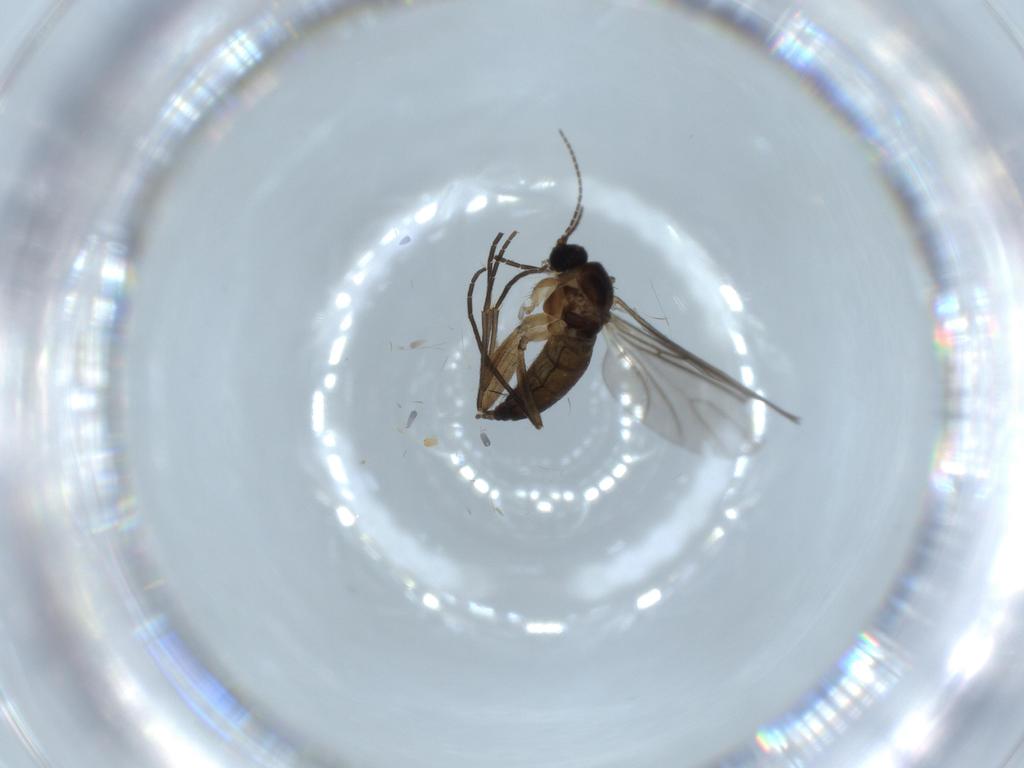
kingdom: Animalia
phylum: Arthropoda
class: Insecta
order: Diptera
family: Sciaridae
